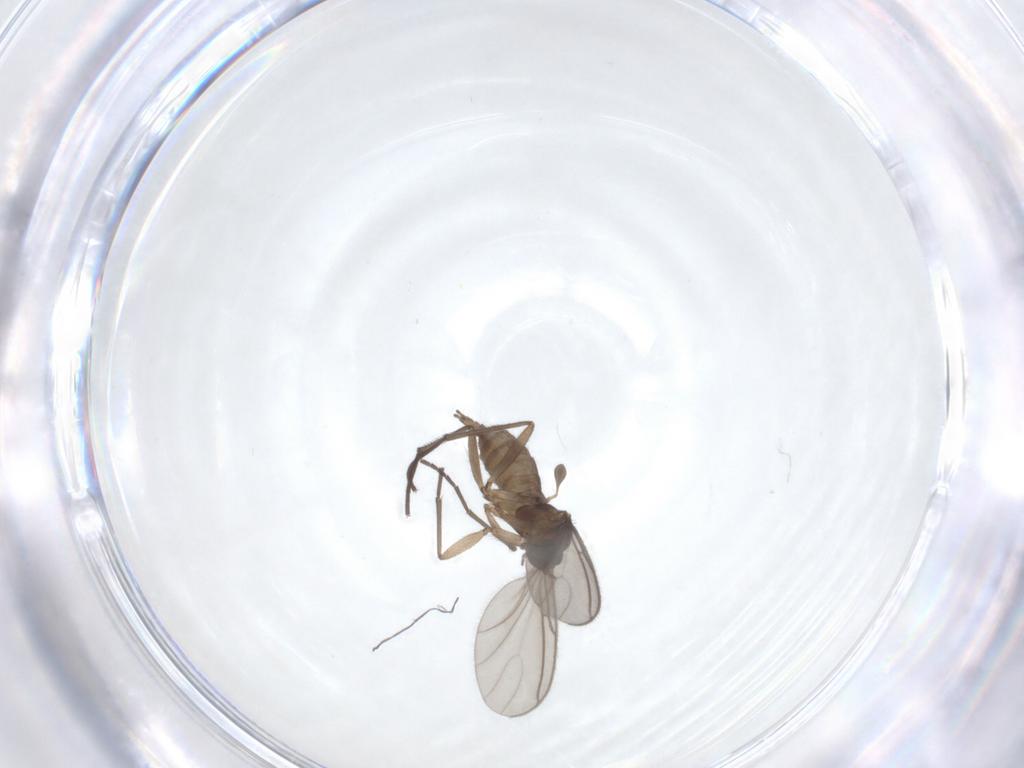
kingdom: Animalia
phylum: Arthropoda
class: Insecta
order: Diptera
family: Sciaridae
